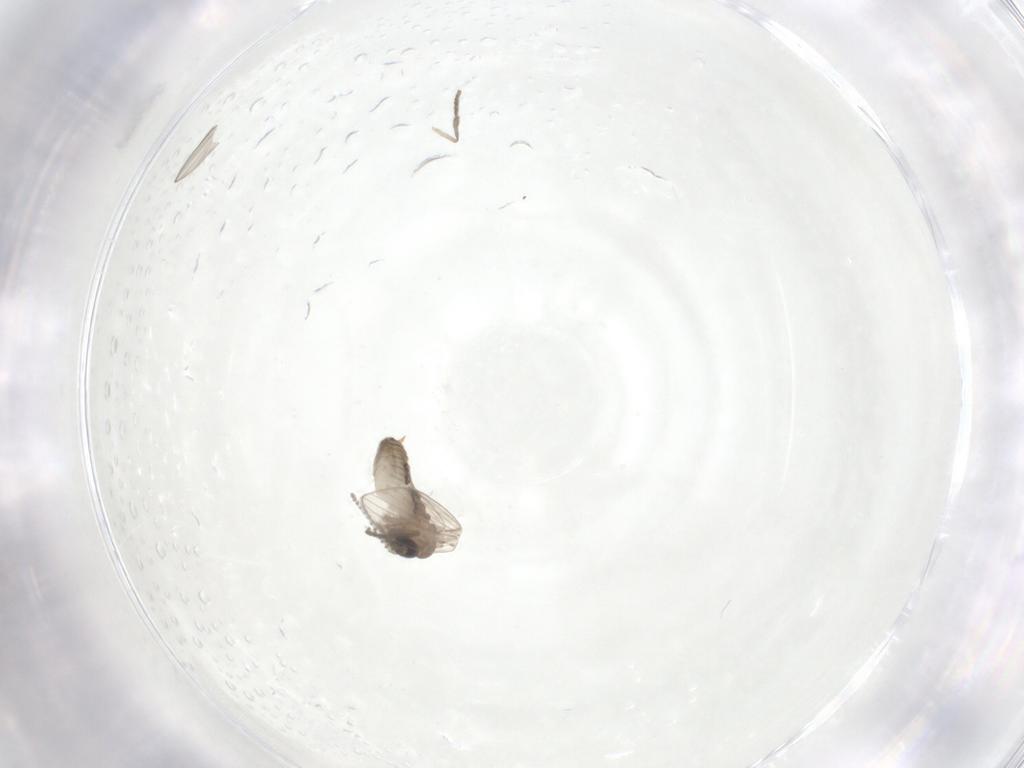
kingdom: Animalia
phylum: Arthropoda
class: Insecta
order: Diptera
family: Psychodidae
